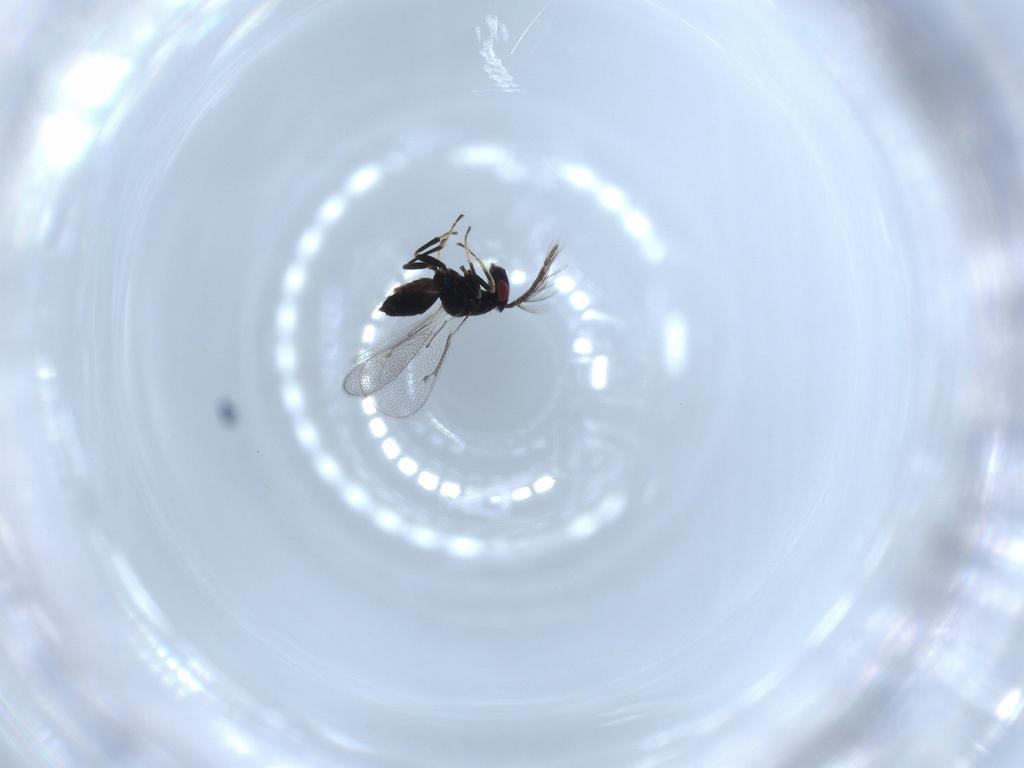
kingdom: Animalia
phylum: Arthropoda
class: Insecta
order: Hymenoptera
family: Eulophidae
